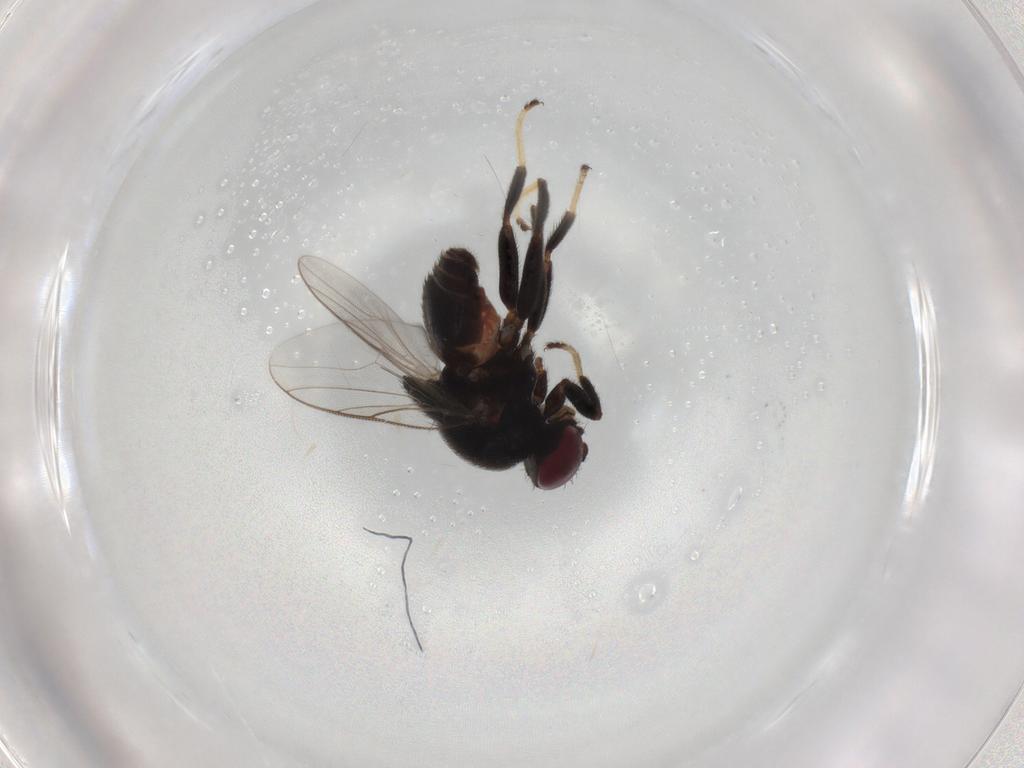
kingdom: Animalia
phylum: Arthropoda
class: Insecta
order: Diptera
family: Chloropidae
